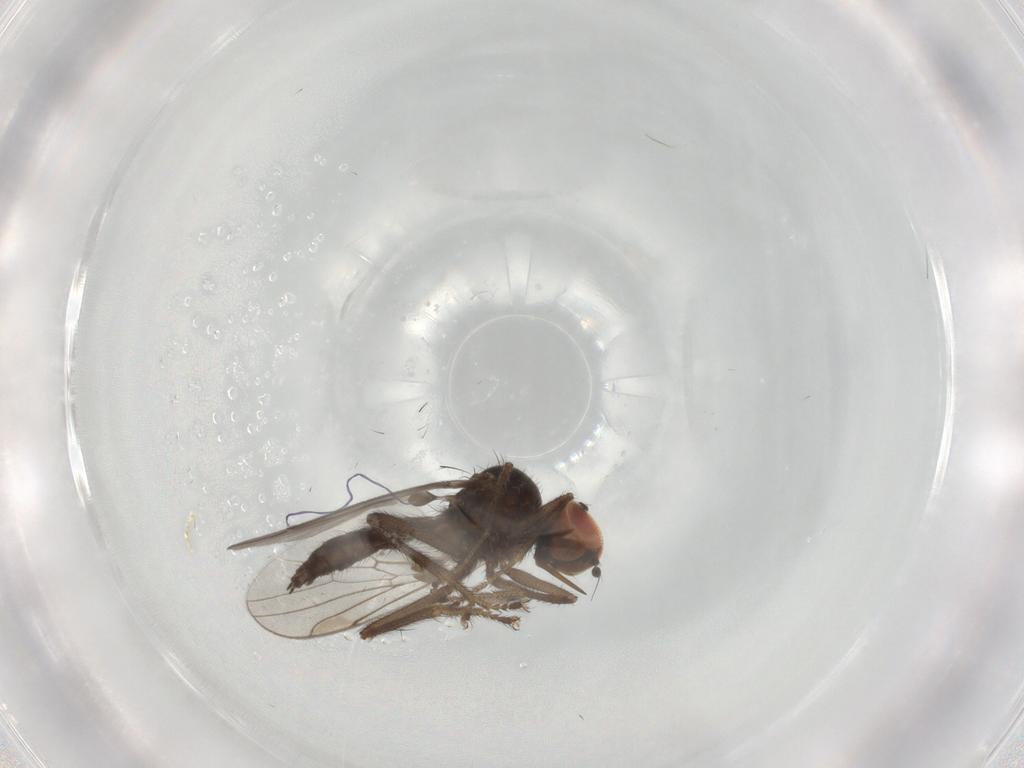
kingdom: Animalia
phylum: Arthropoda
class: Insecta
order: Diptera
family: Hybotidae
